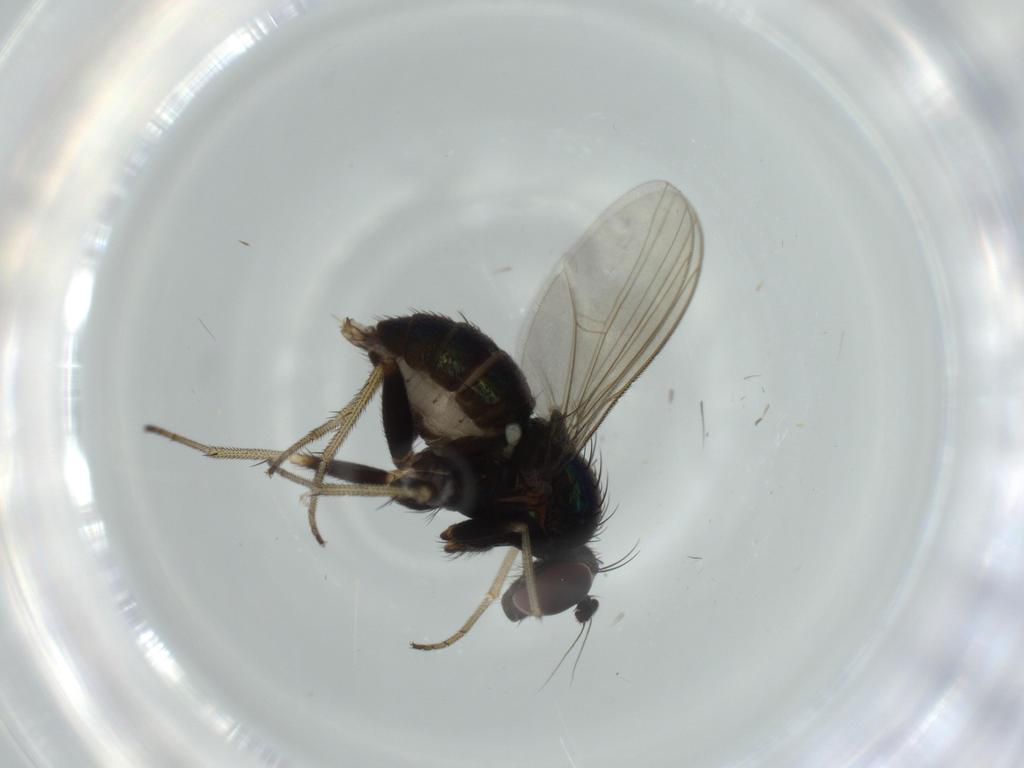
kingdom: Animalia
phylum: Arthropoda
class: Insecta
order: Diptera
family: Dolichopodidae
